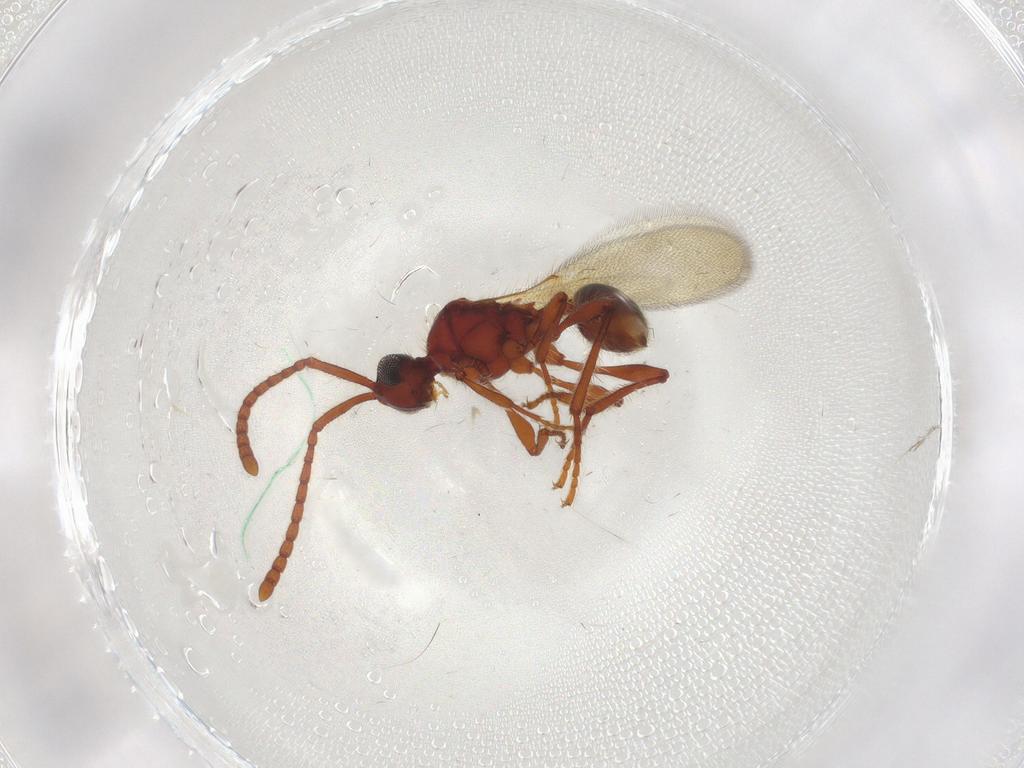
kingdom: Animalia
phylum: Arthropoda
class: Insecta
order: Hymenoptera
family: Diapriidae
